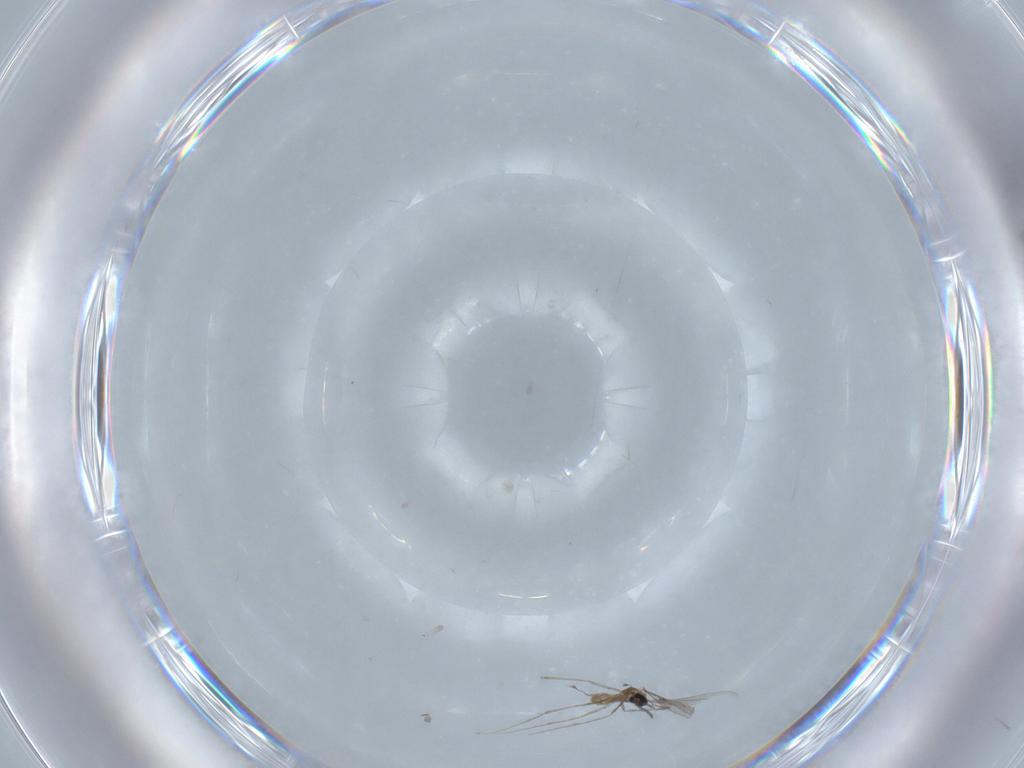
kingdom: Animalia
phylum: Arthropoda
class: Insecta
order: Diptera
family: Cecidomyiidae
